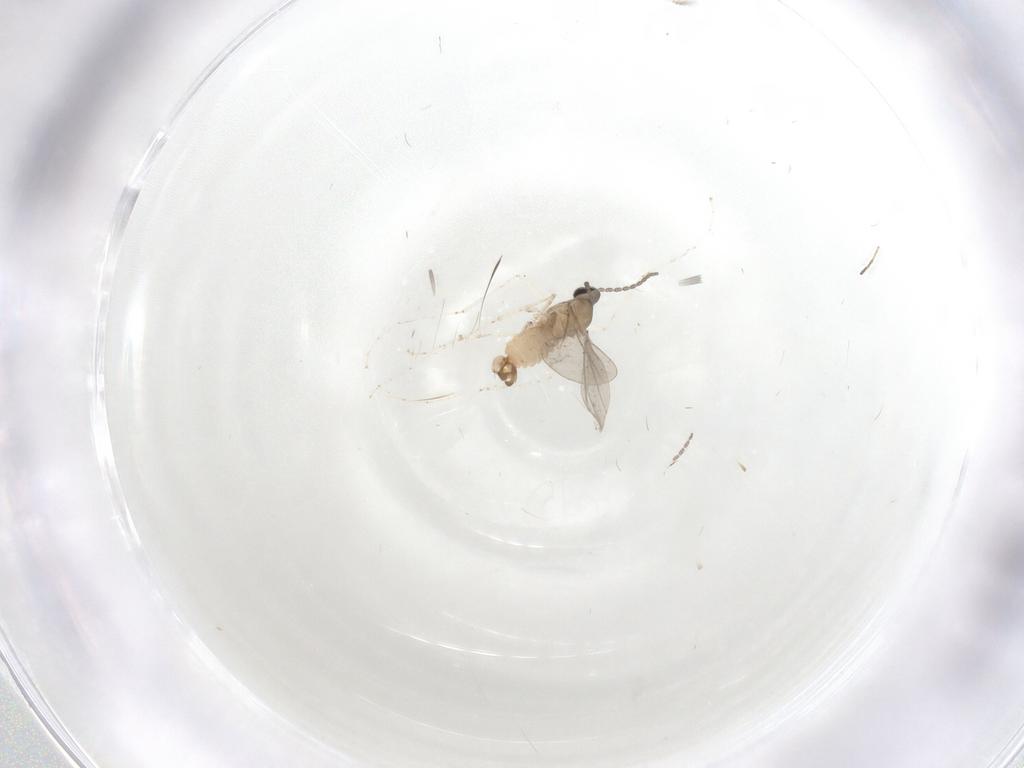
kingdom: Animalia
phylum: Arthropoda
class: Insecta
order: Diptera
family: Cecidomyiidae
